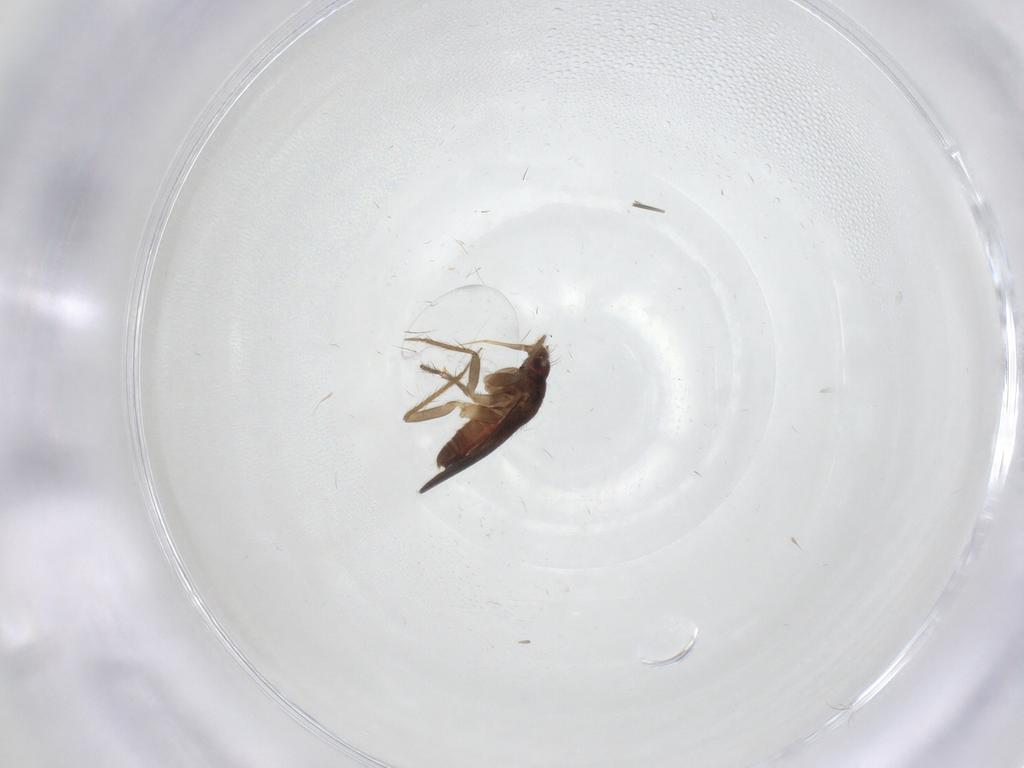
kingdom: Animalia
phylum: Arthropoda
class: Insecta
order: Hemiptera
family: Ceratocombidae
